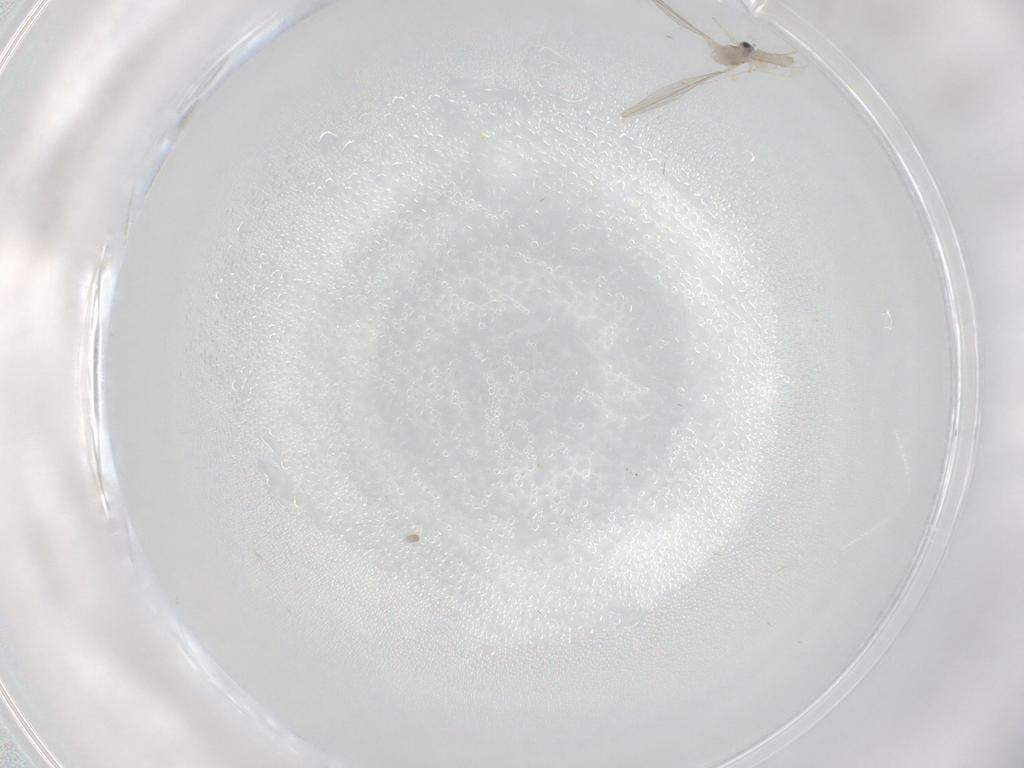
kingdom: Animalia
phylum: Arthropoda
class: Insecta
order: Diptera
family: Cecidomyiidae
